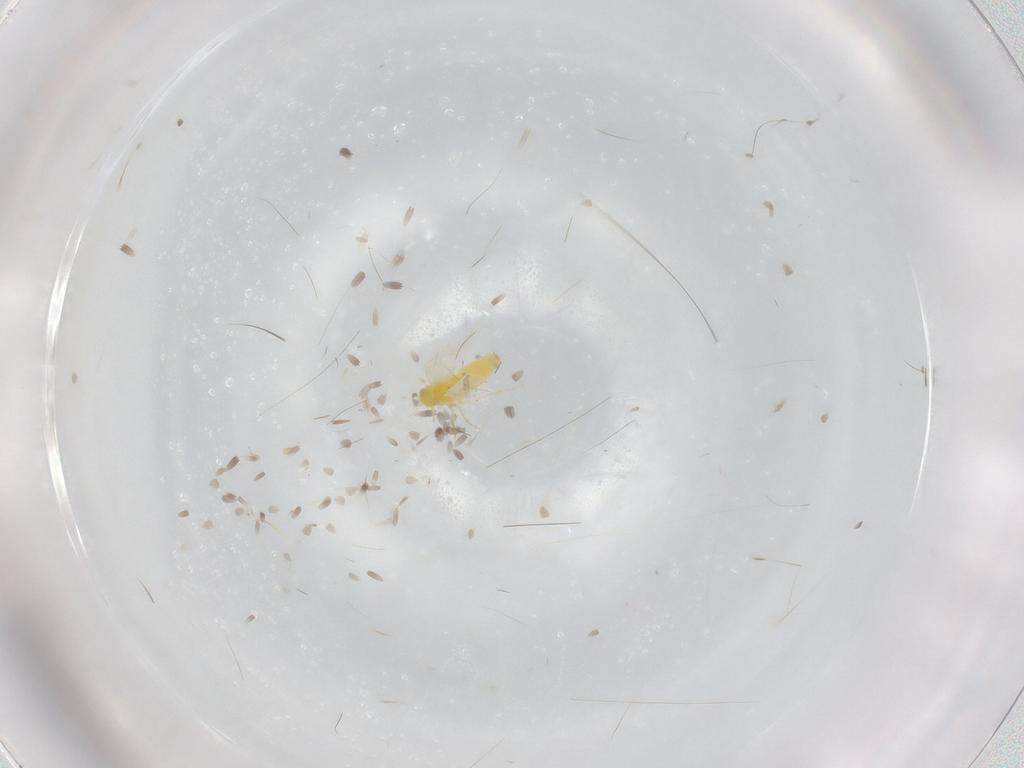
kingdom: Animalia
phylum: Arthropoda
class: Insecta
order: Hemiptera
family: Aleyrodidae
